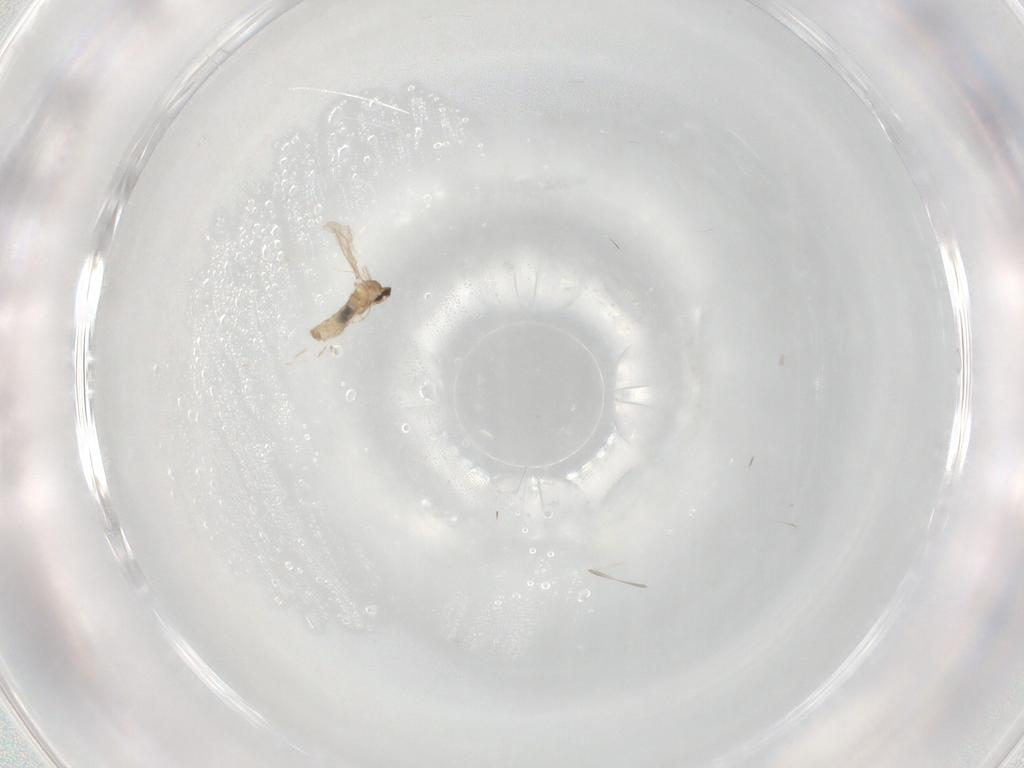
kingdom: Animalia
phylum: Arthropoda
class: Insecta
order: Diptera
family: Cecidomyiidae
